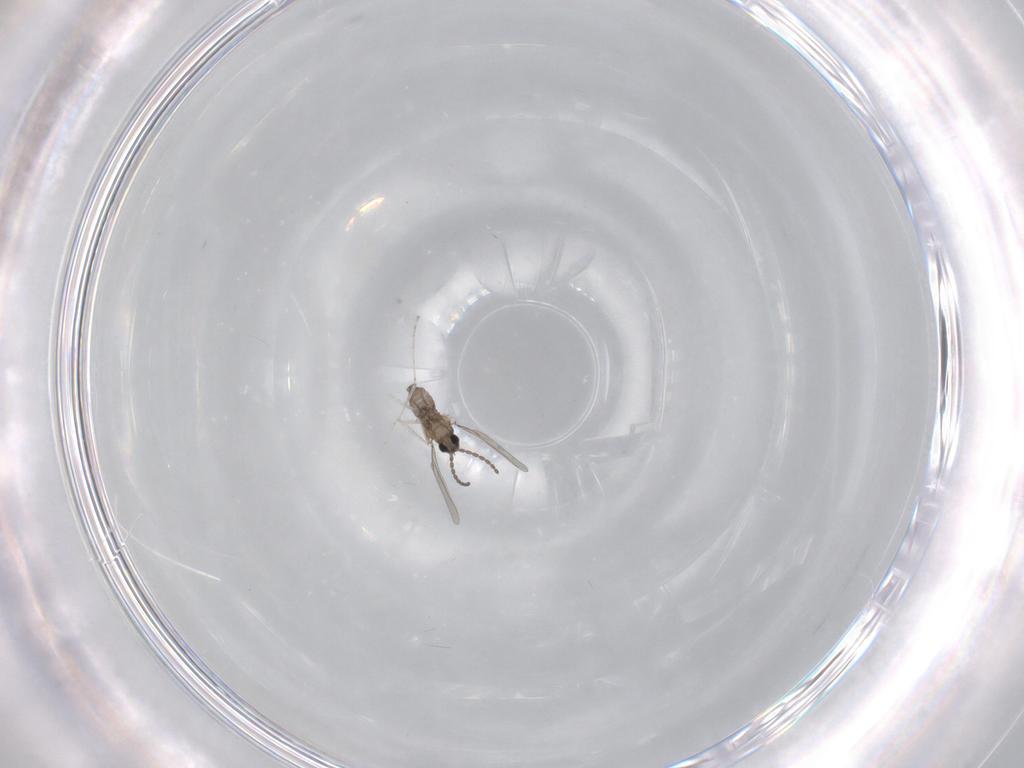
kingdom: Animalia
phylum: Arthropoda
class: Insecta
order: Diptera
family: Cecidomyiidae
